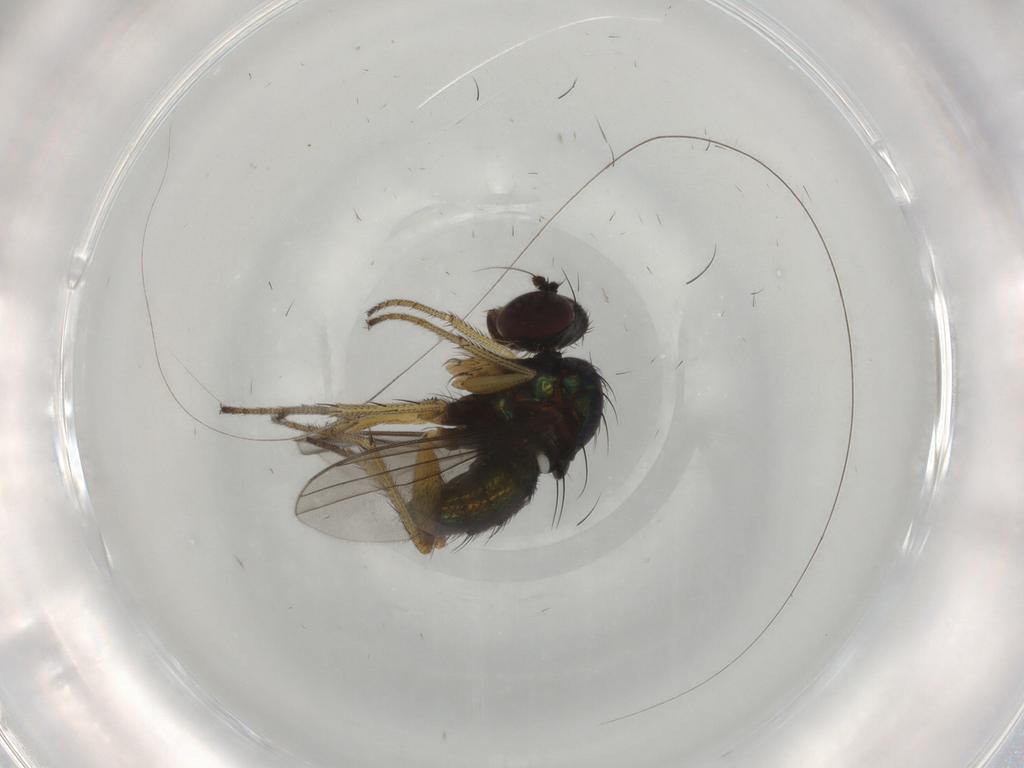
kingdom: Animalia
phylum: Arthropoda
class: Insecta
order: Diptera
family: Dolichopodidae
